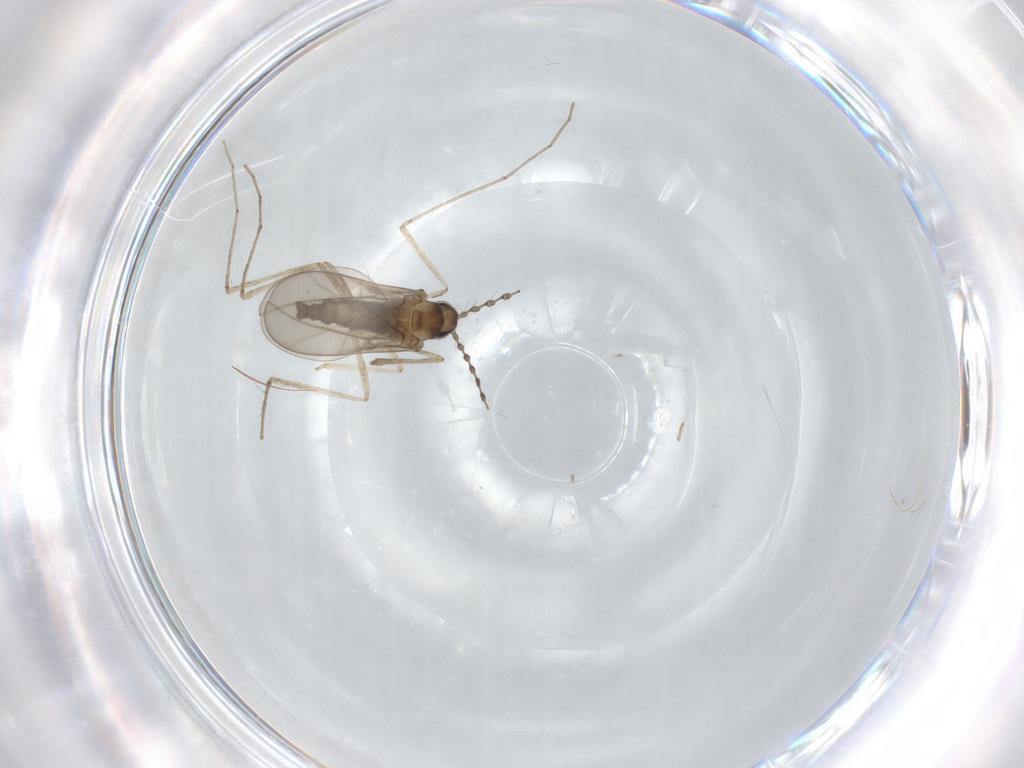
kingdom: Animalia
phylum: Arthropoda
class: Insecta
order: Diptera
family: Cecidomyiidae
